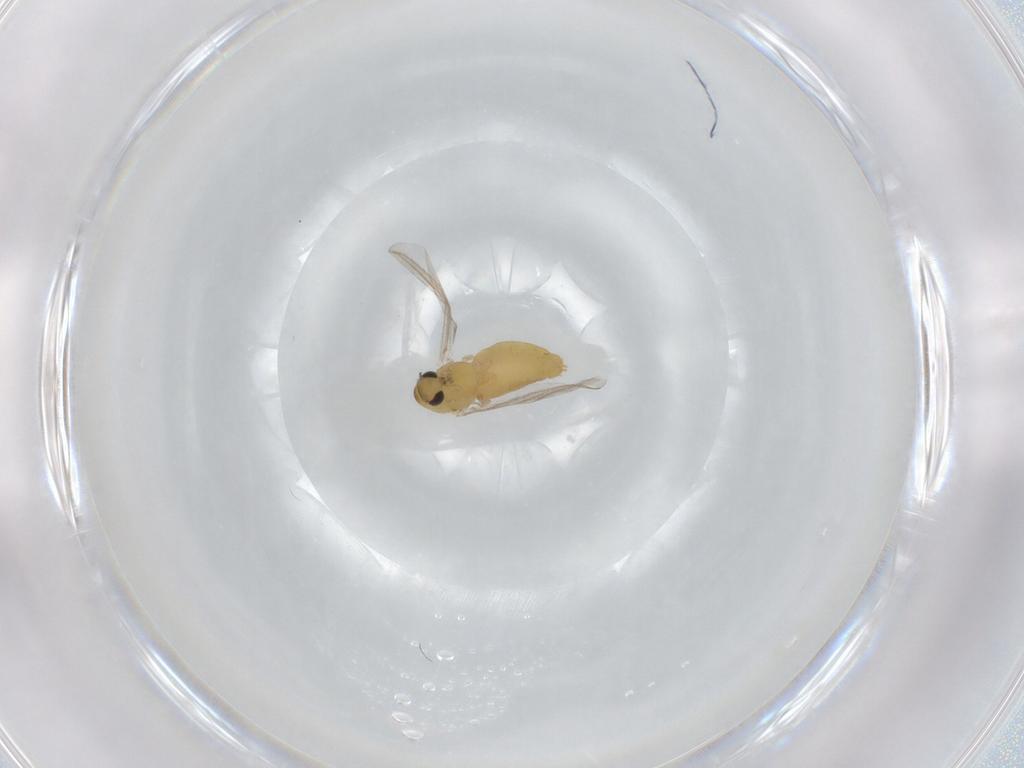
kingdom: Animalia
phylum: Arthropoda
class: Insecta
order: Diptera
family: Chironomidae
